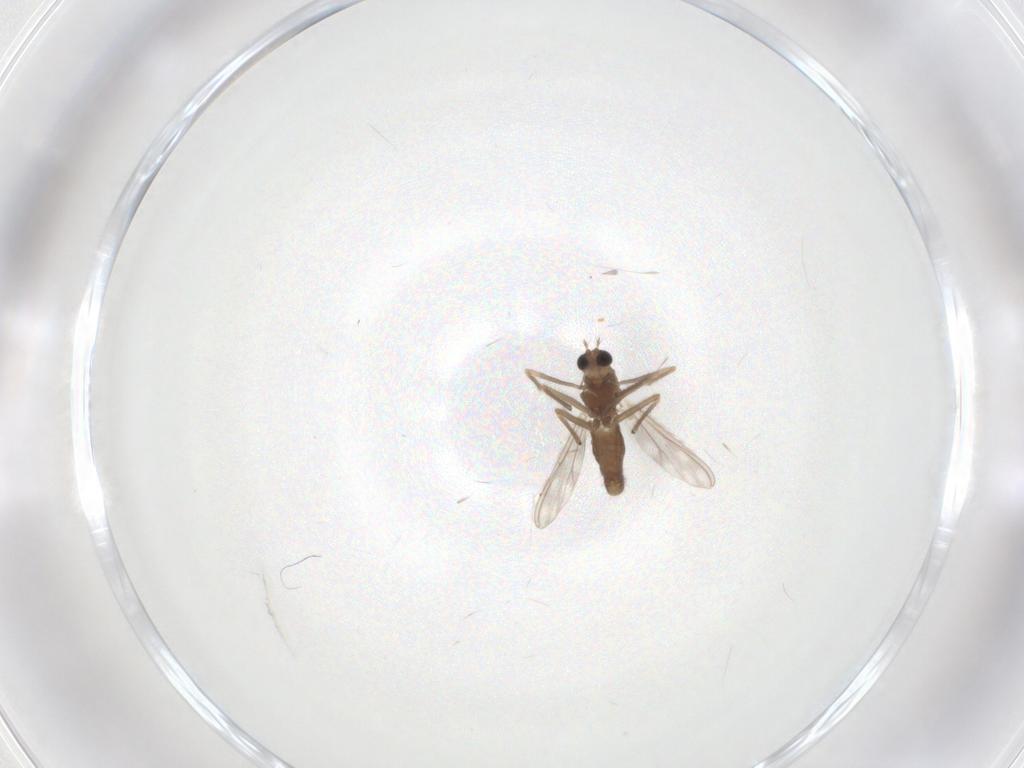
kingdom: Animalia
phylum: Arthropoda
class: Insecta
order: Diptera
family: Chironomidae
